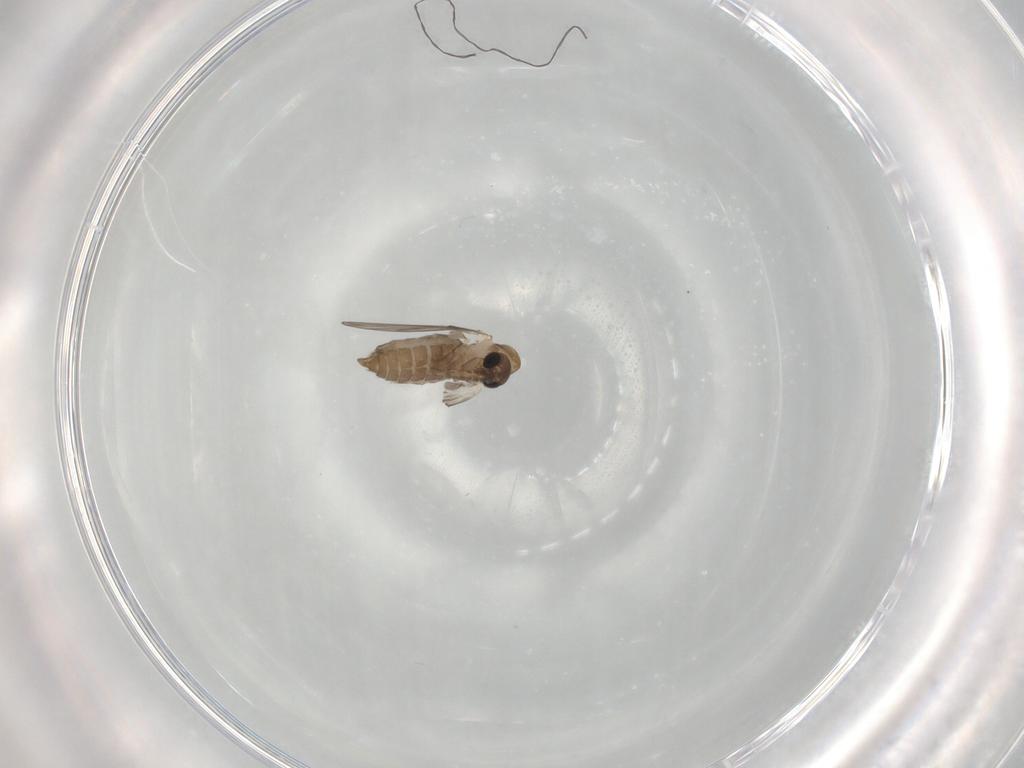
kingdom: Animalia
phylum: Arthropoda
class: Insecta
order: Diptera
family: Psychodidae
